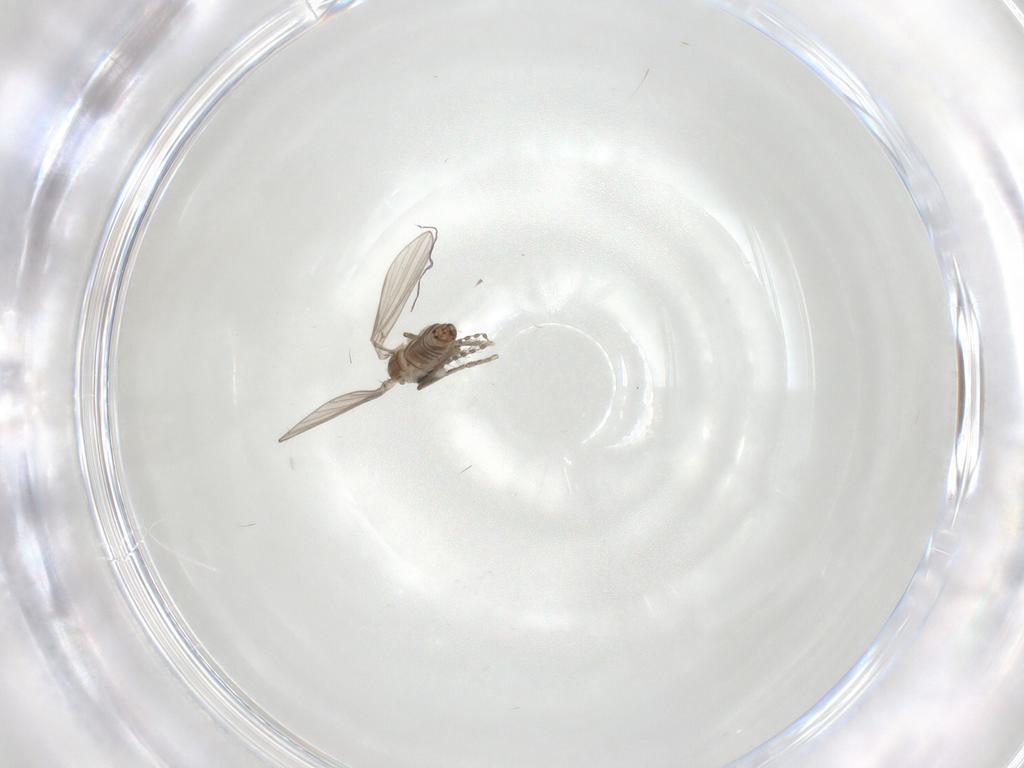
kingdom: Animalia
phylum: Arthropoda
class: Insecta
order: Diptera
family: Psychodidae
